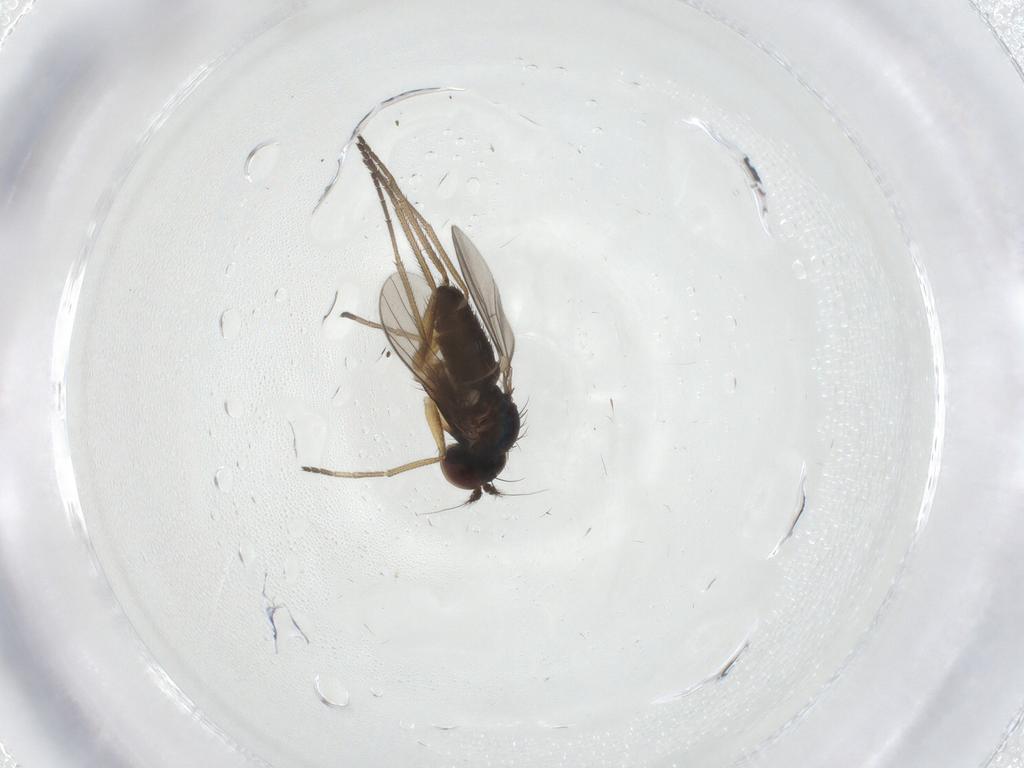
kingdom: Animalia
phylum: Arthropoda
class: Insecta
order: Diptera
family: Dolichopodidae
